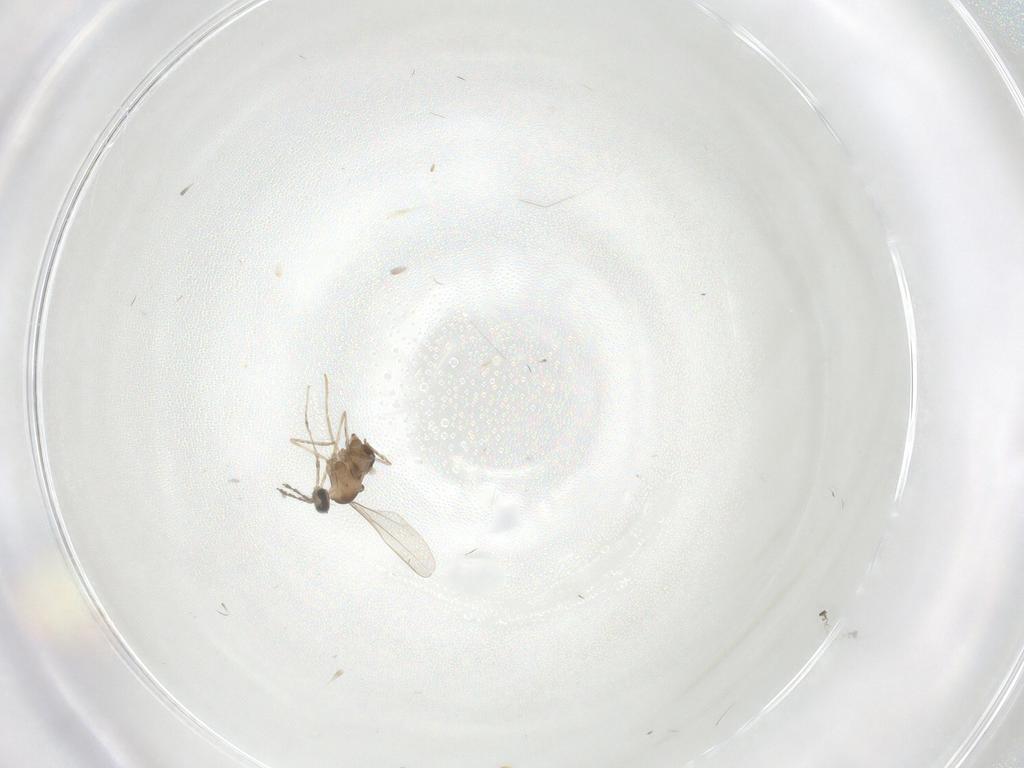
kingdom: Animalia
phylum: Arthropoda
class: Insecta
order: Diptera
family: Cecidomyiidae
